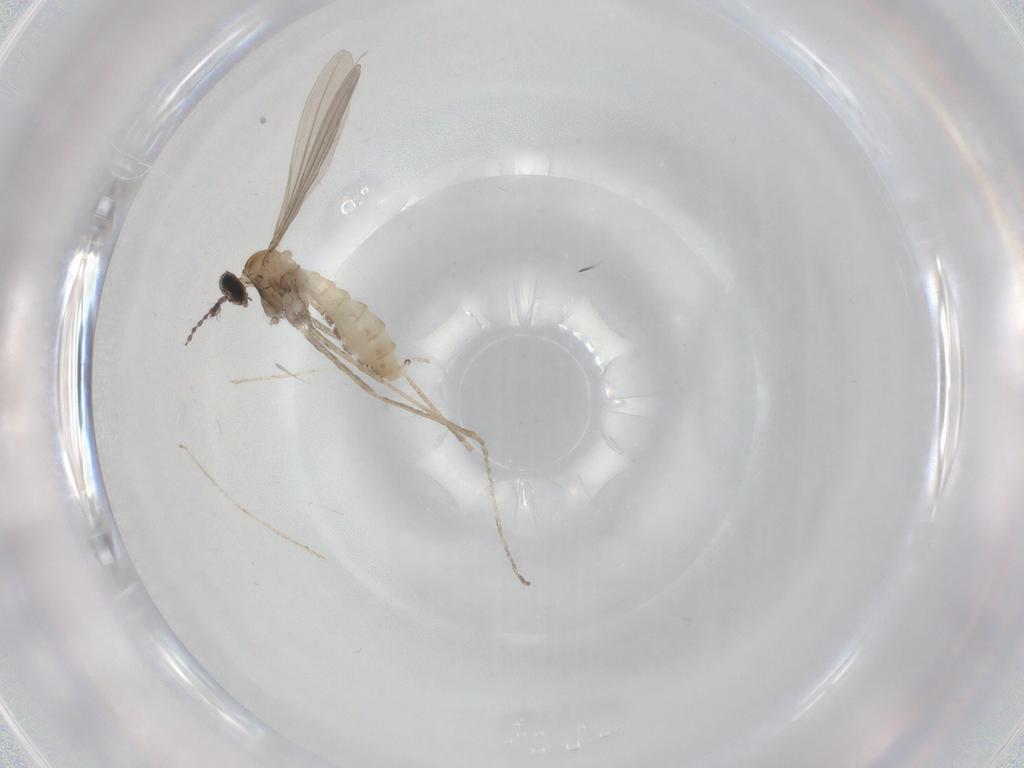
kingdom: Animalia
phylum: Arthropoda
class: Insecta
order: Diptera
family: Cecidomyiidae
